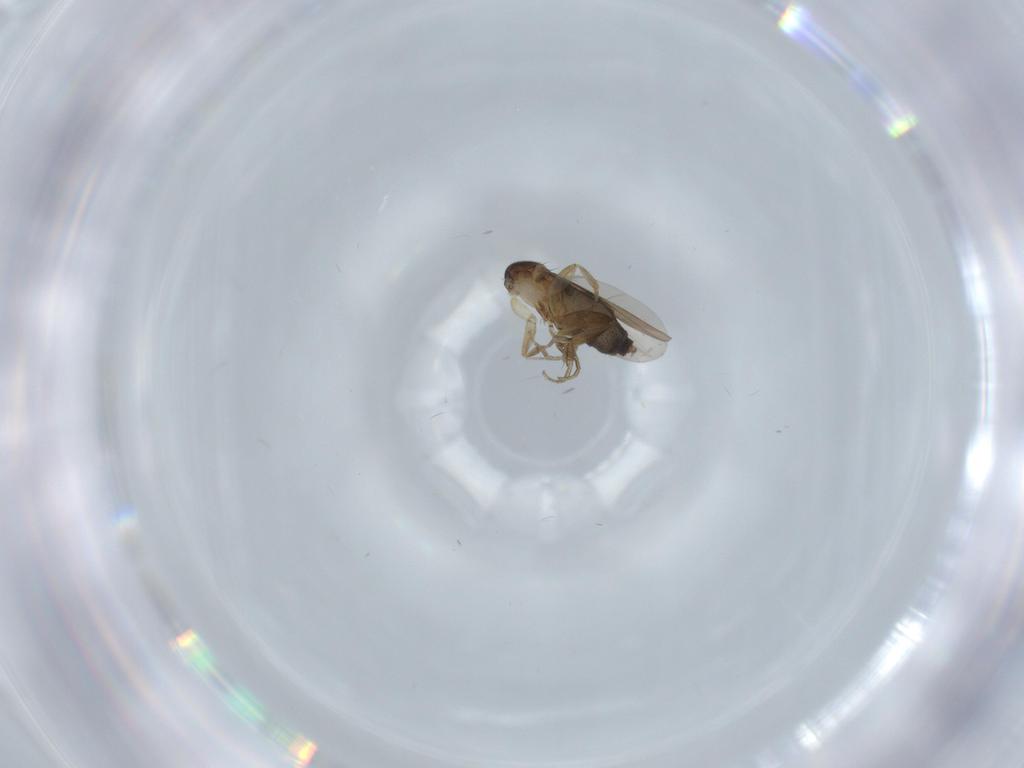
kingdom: Animalia
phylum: Arthropoda
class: Insecta
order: Diptera
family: Phoridae
